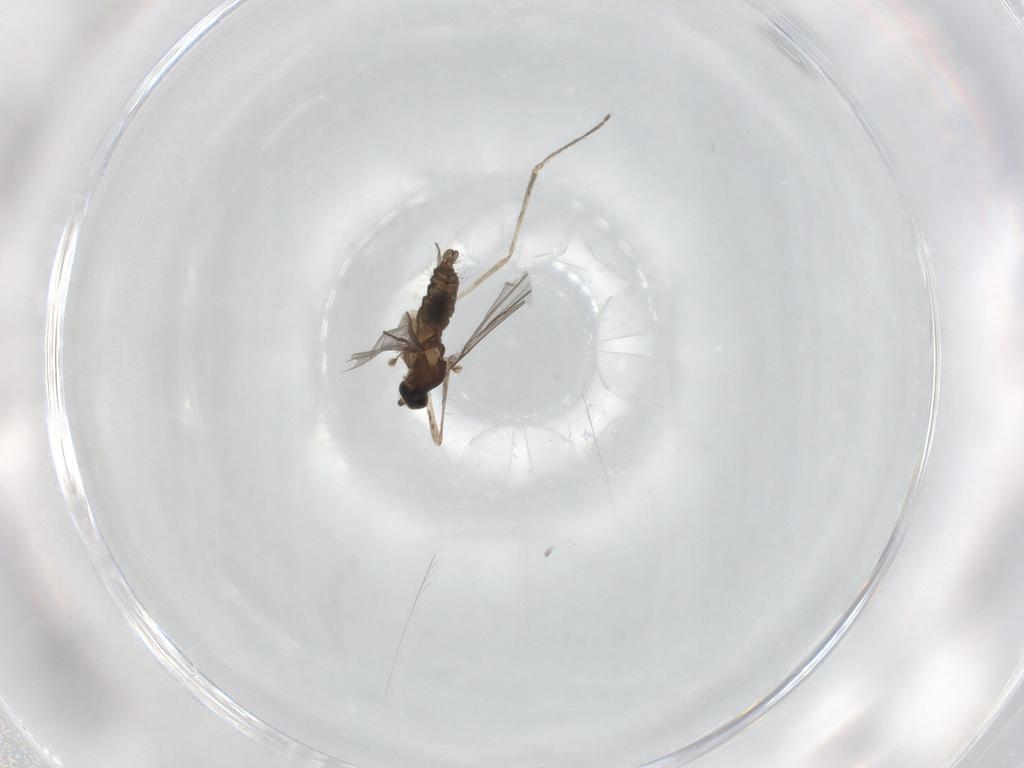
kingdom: Animalia
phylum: Arthropoda
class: Insecta
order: Diptera
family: Cecidomyiidae
